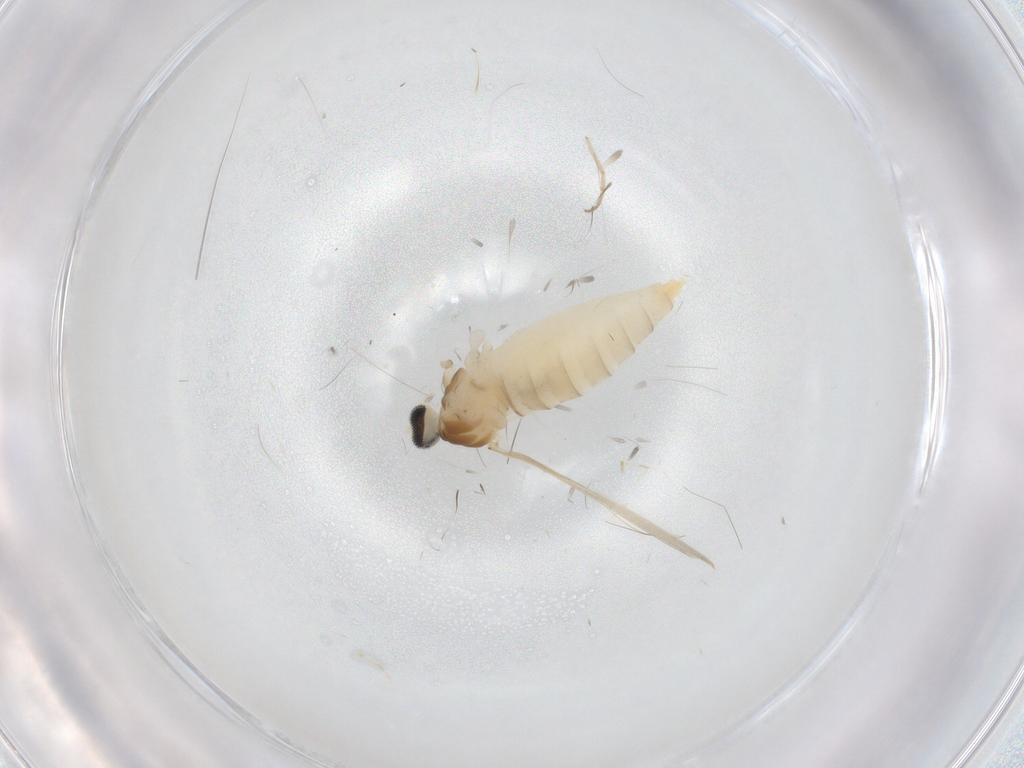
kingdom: Animalia
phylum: Arthropoda
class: Insecta
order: Diptera
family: Cecidomyiidae
